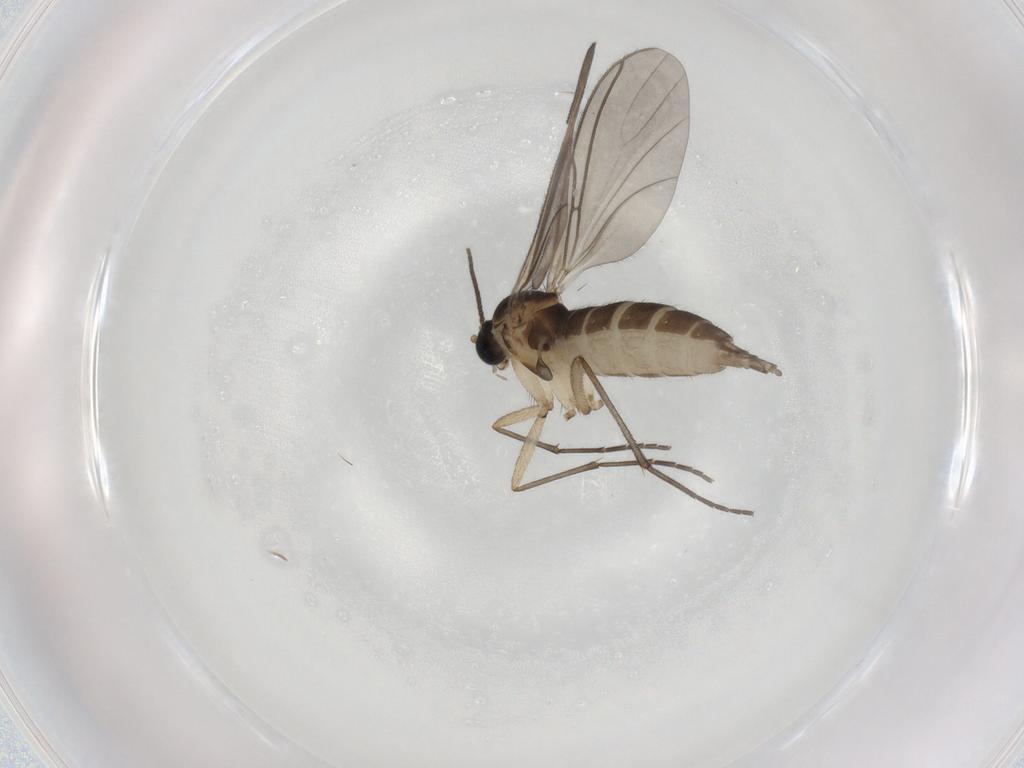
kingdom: Animalia
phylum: Arthropoda
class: Insecta
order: Diptera
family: Sciaridae
